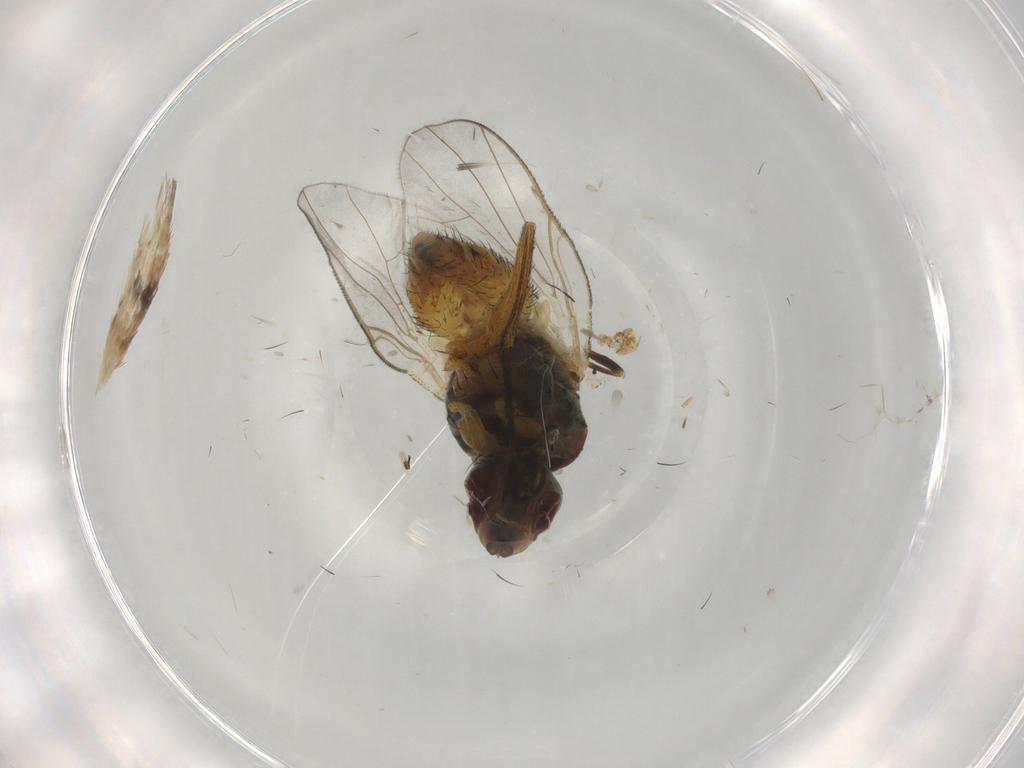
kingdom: Animalia
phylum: Arthropoda
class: Insecta
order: Diptera
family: Muscidae
